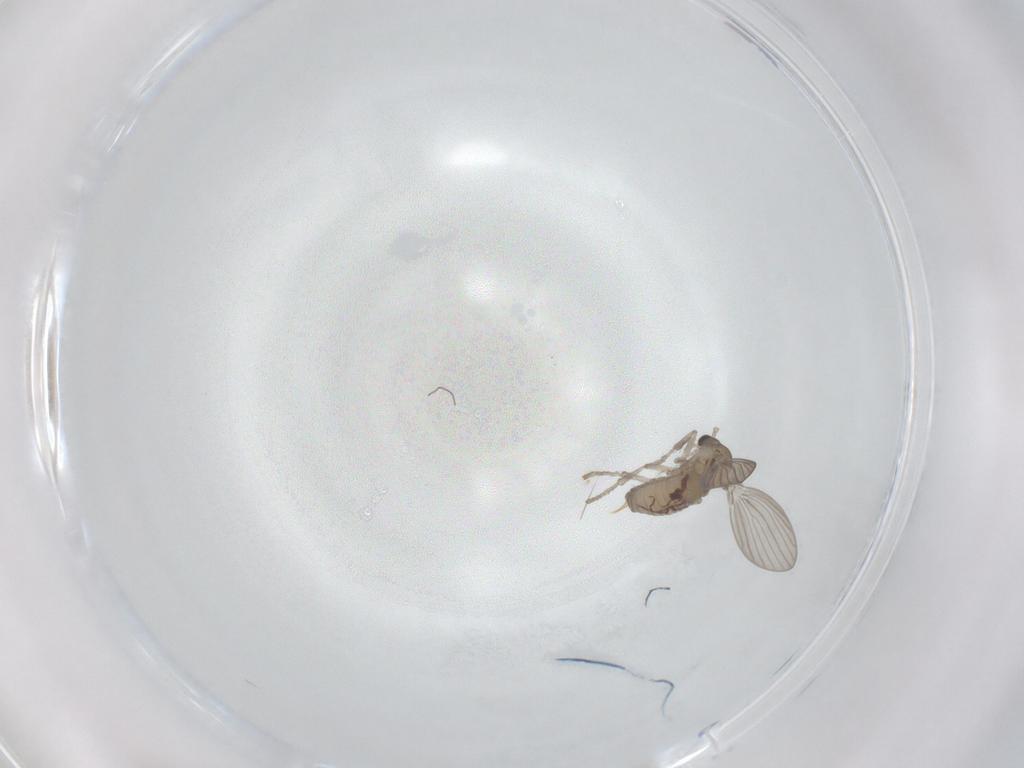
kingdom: Animalia
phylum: Arthropoda
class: Insecta
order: Diptera
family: Psychodidae
